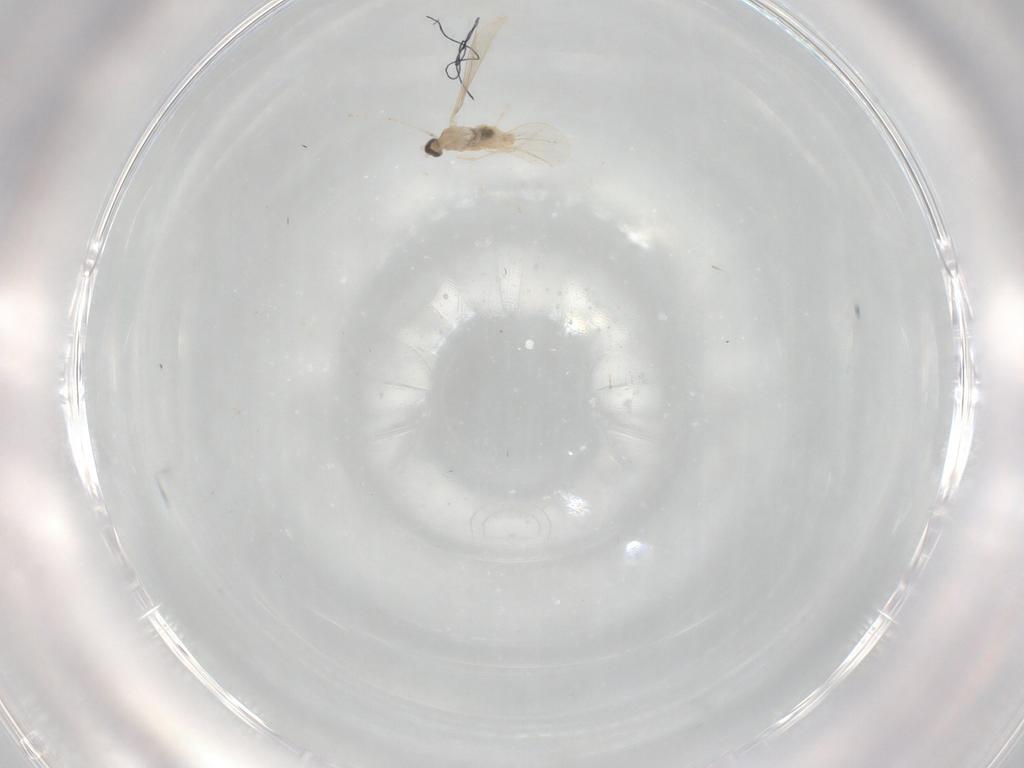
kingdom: Animalia
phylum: Arthropoda
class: Insecta
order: Diptera
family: Chironomidae
